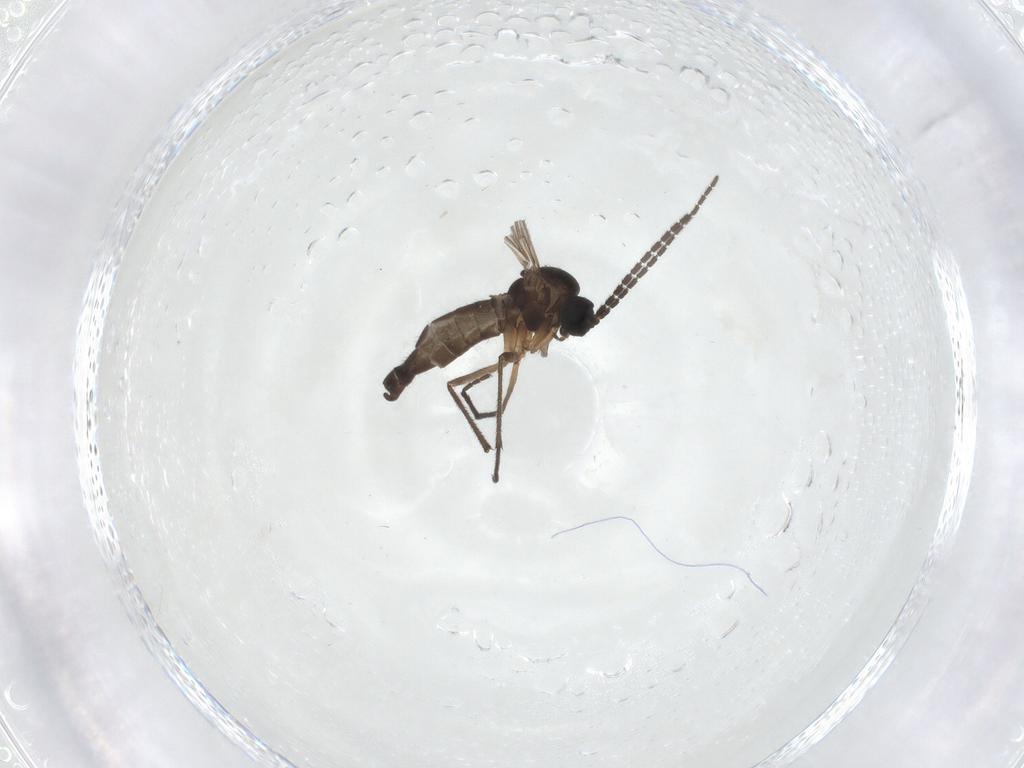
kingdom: Animalia
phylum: Arthropoda
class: Insecta
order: Diptera
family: Sciaridae
